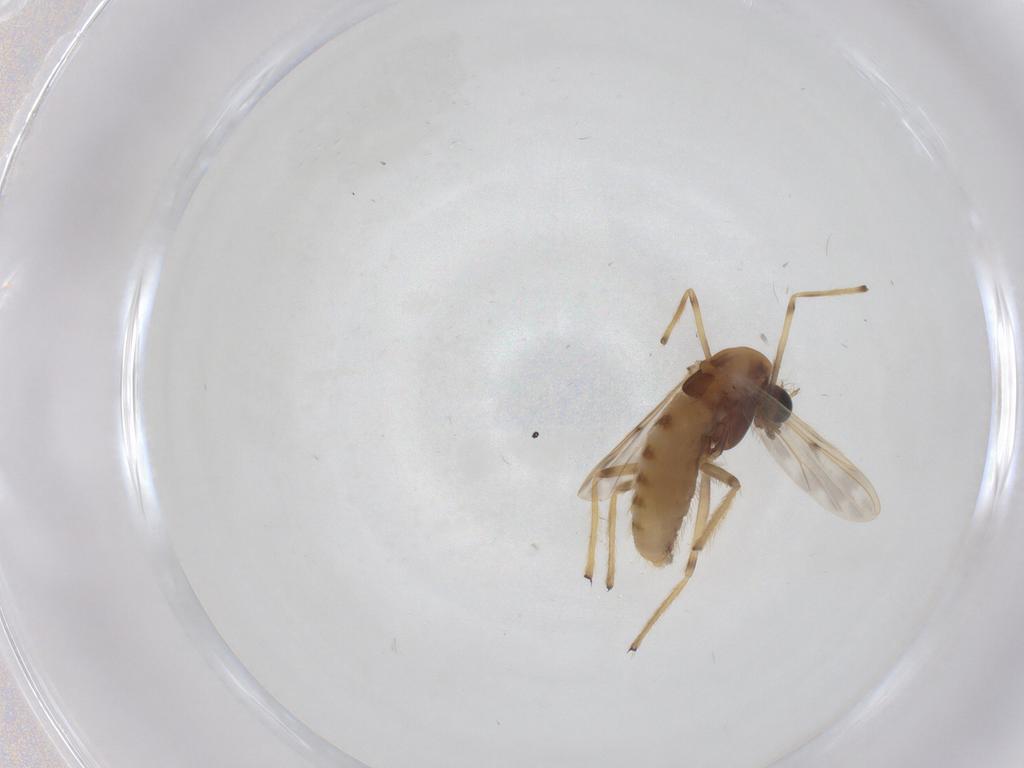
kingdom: Animalia
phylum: Arthropoda
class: Insecta
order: Diptera
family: Chironomidae
